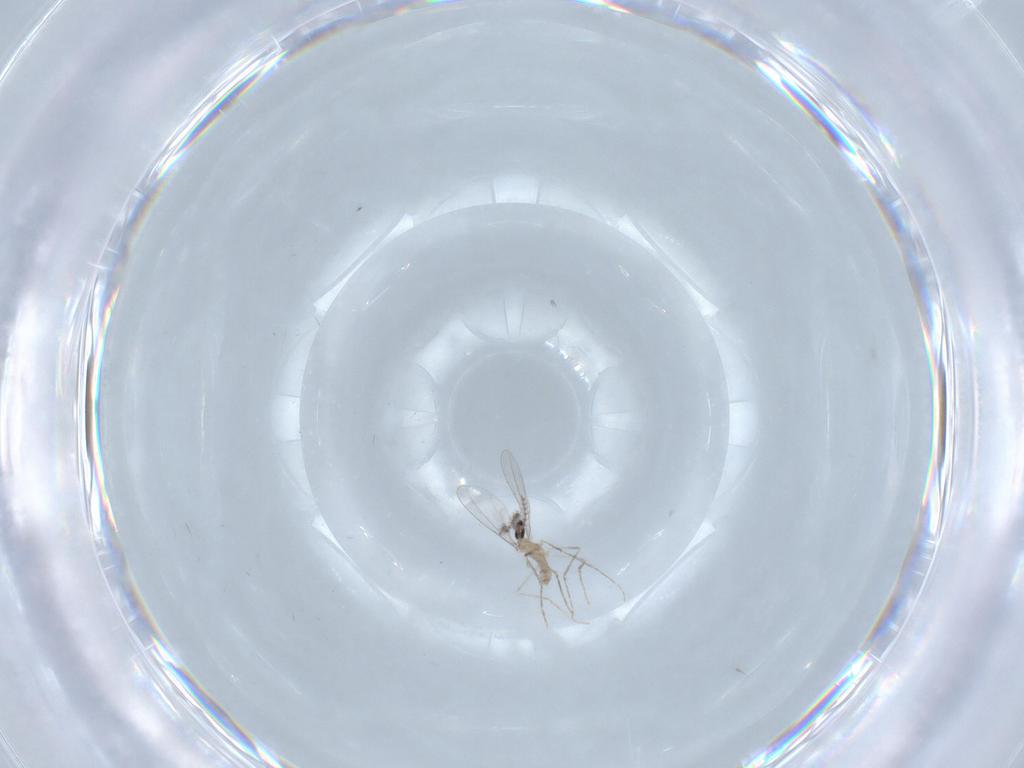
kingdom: Animalia
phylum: Arthropoda
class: Insecta
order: Diptera
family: Cecidomyiidae
